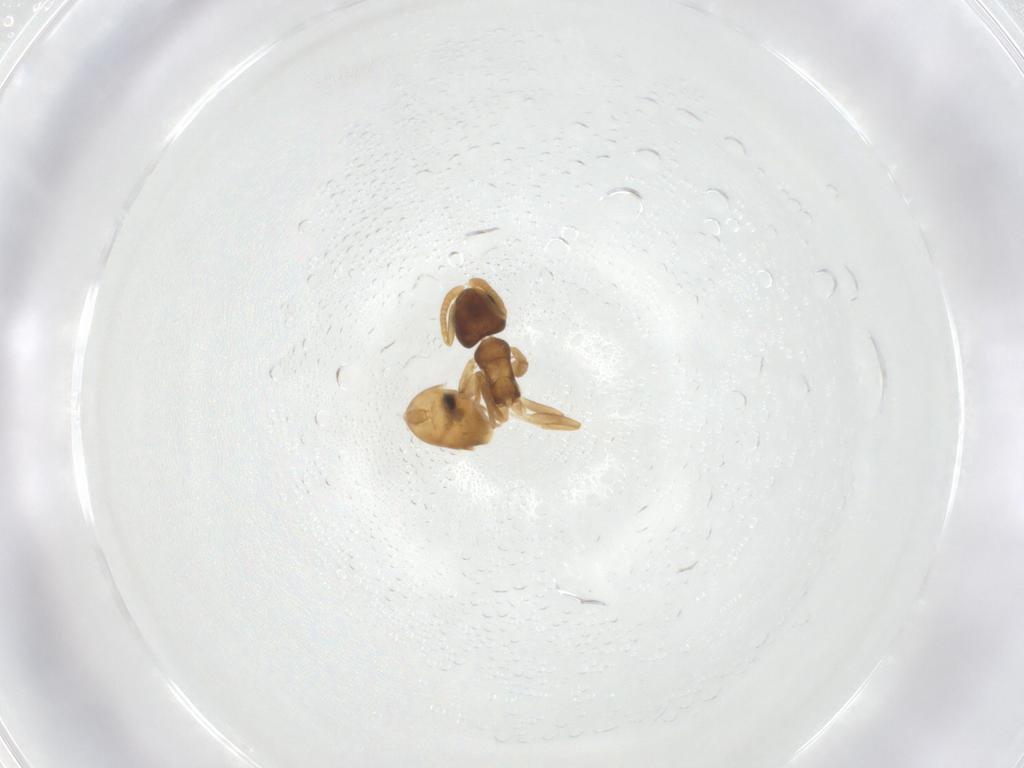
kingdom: Animalia
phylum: Arthropoda
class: Insecta
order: Hymenoptera
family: Formicidae
